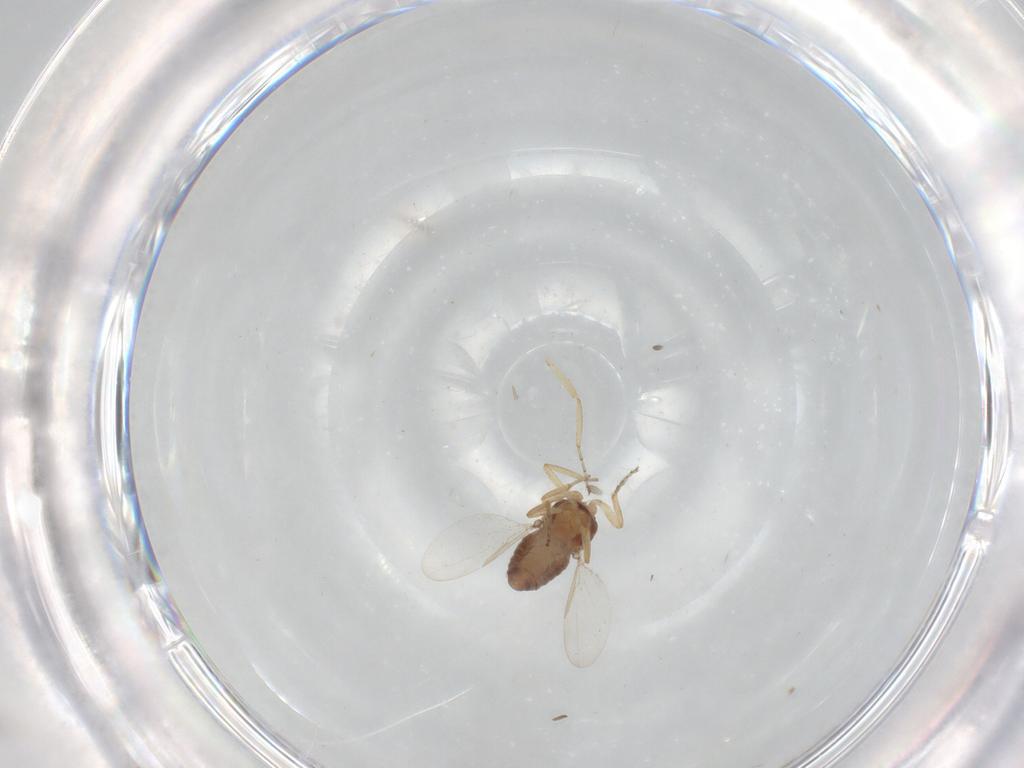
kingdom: Animalia
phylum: Arthropoda
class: Insecta
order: Diptera
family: Ceratopogonidae
